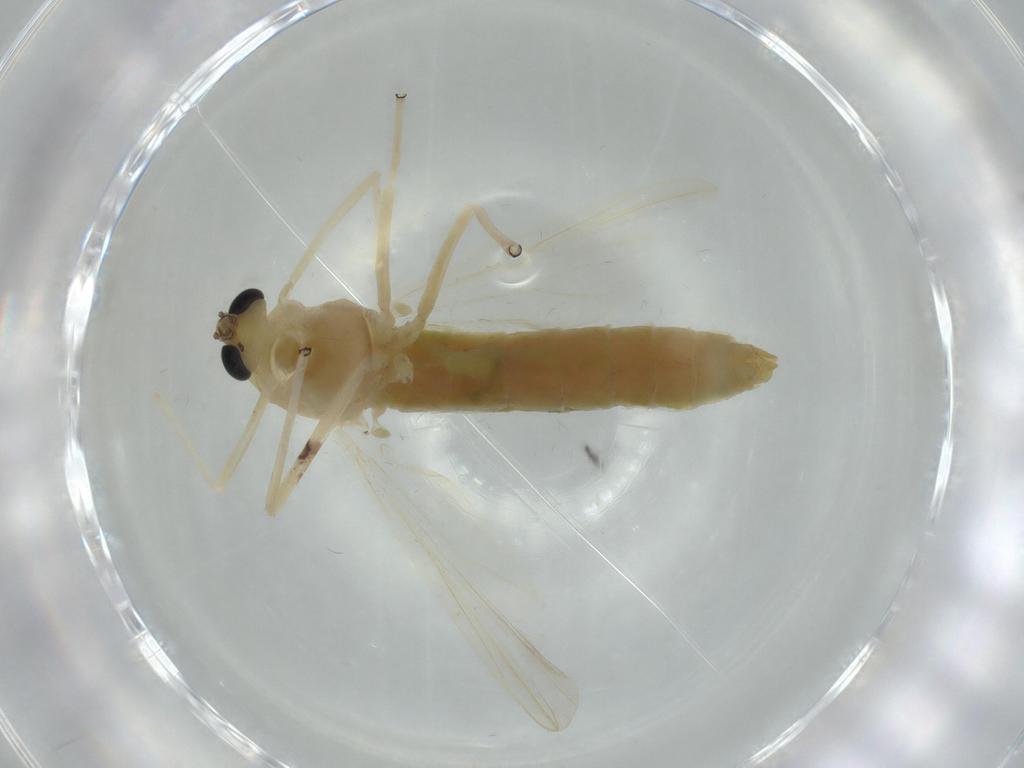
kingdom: Animalia
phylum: Arthropoda
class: Insecta
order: Diptera
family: Chironomidae
